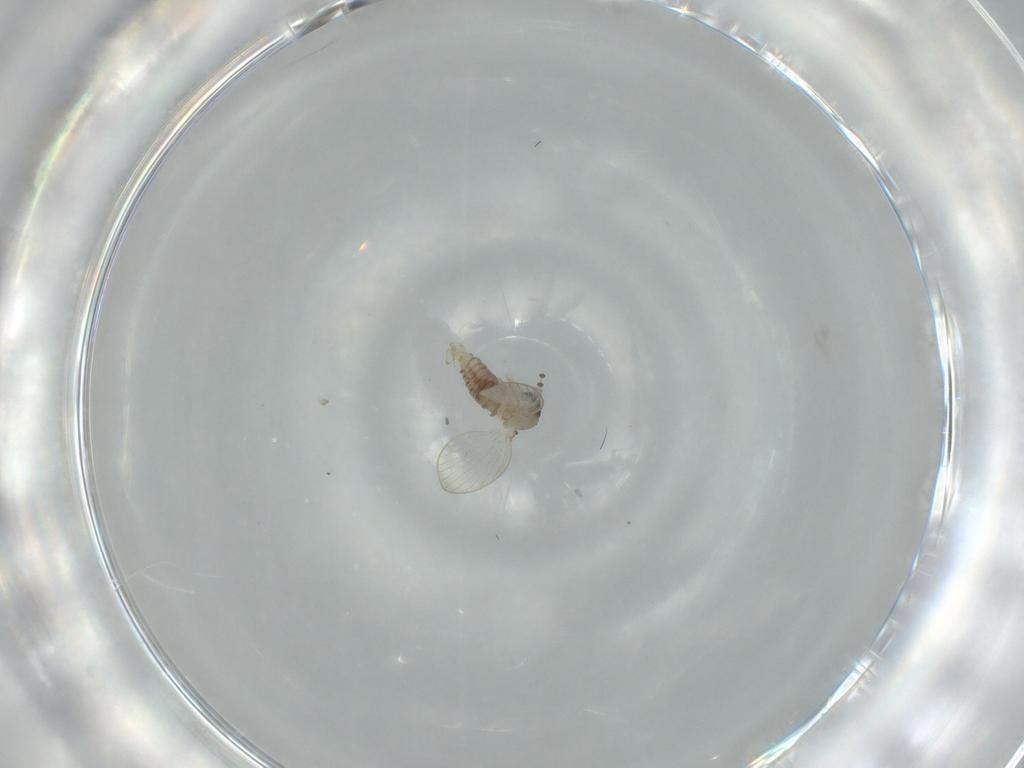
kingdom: Animalia
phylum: Arthropoda
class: Insecta
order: Diptera
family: Psychodidae
